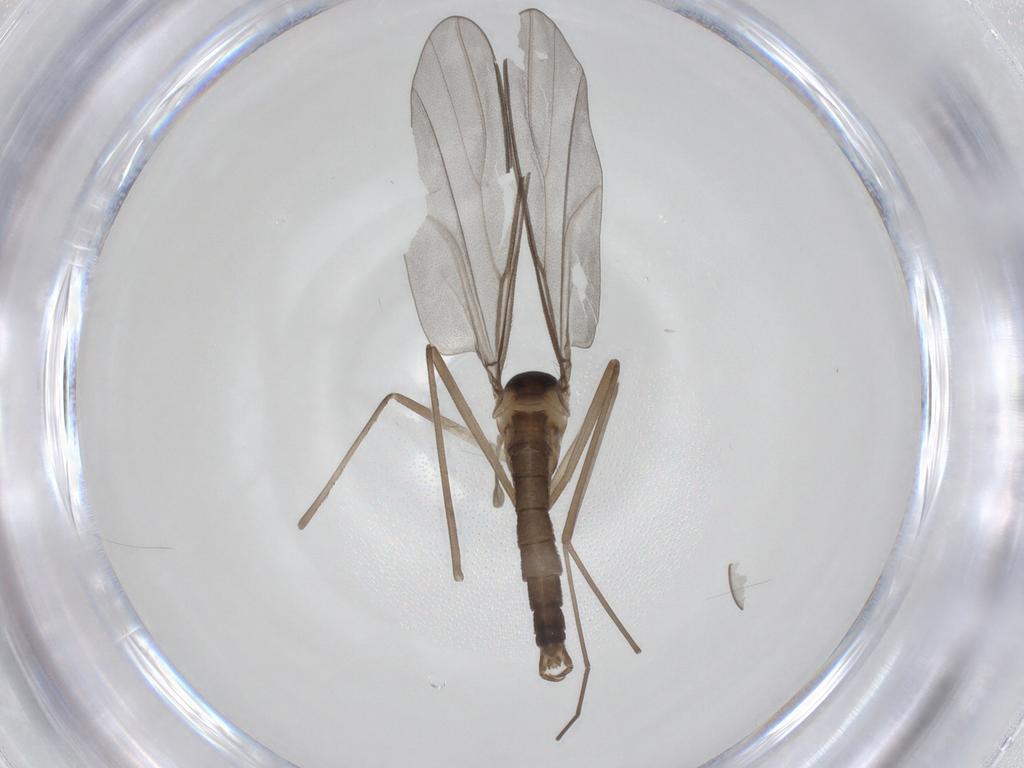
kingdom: Animalia
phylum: Arthropoda
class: Insecta
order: Diptera
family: Cecidomyiidae
